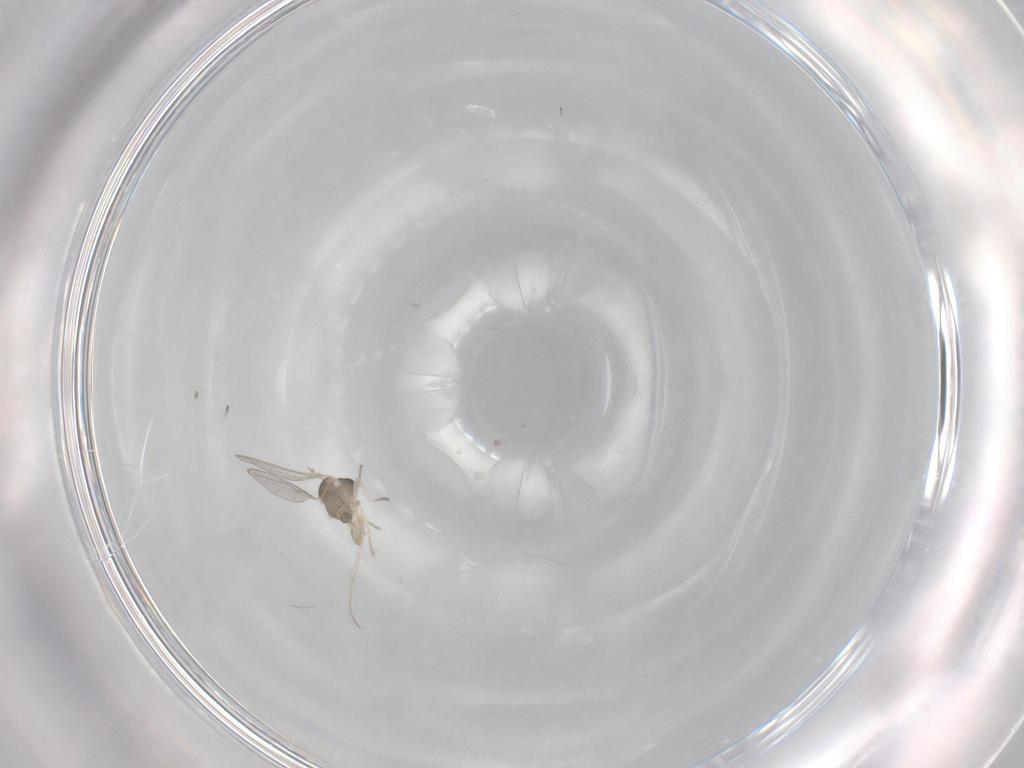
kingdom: Animalia
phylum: Arthropoda
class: Insecta
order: Diptera
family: Cecidomyiidae
